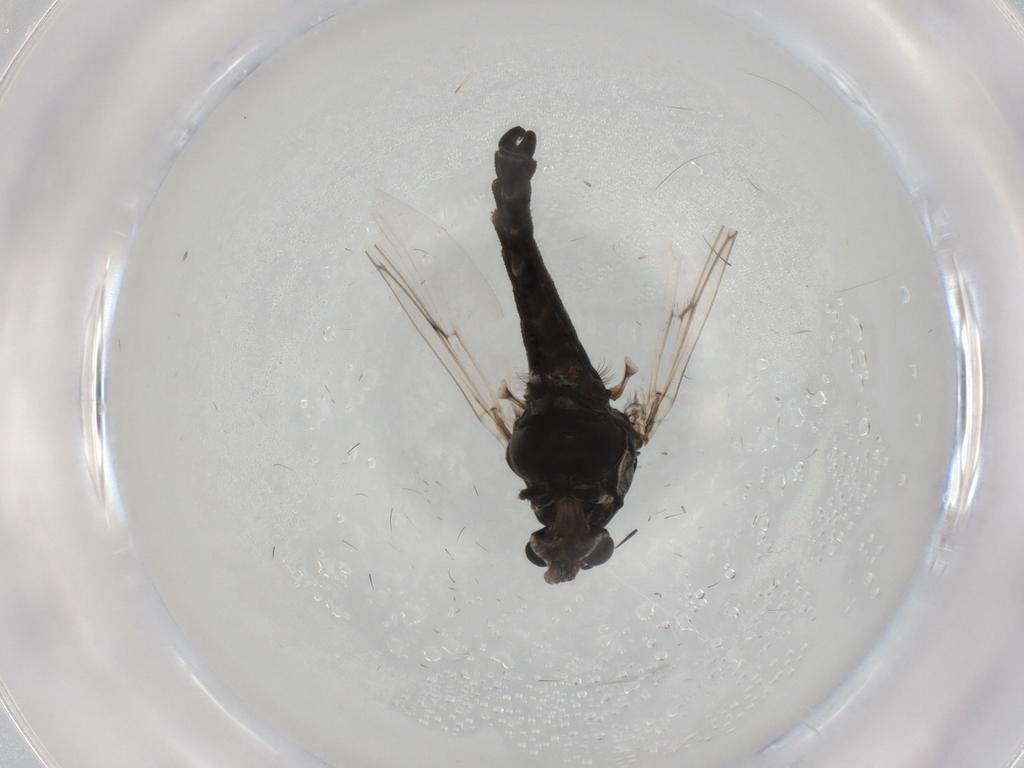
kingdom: Animalia
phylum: Arthropoda
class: Insecta
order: Diptera
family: Chironomidae
